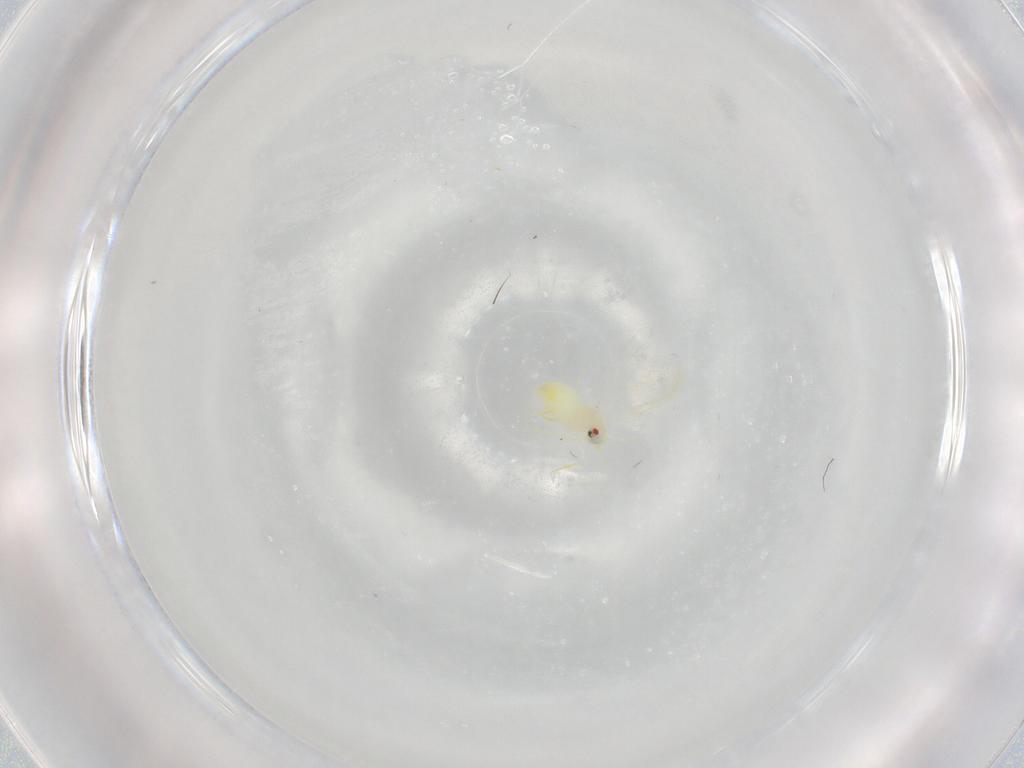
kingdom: Animalia
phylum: Arthropoda
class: Insecta
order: Hemiptera
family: Aleyrodidae
